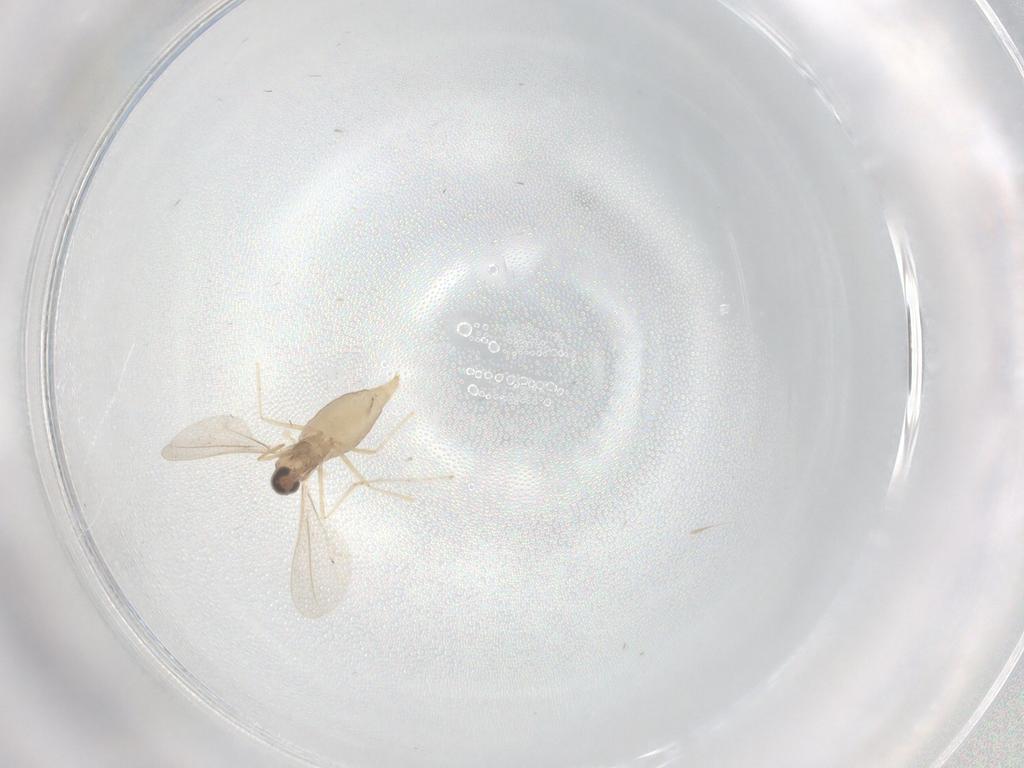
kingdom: Animalia
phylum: Arthropoda
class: Insecta
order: Diptera
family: Cecidomyiidae
